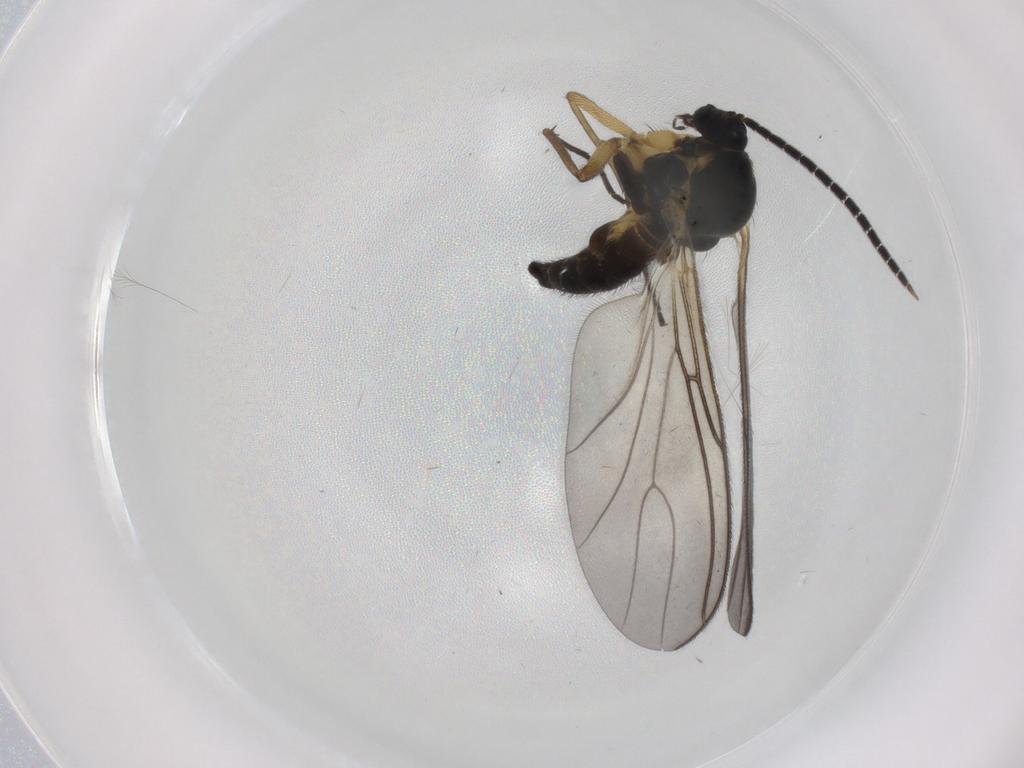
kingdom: Animalia
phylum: Arthropoda
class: Insecta
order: Diptera
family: Sciaridae
